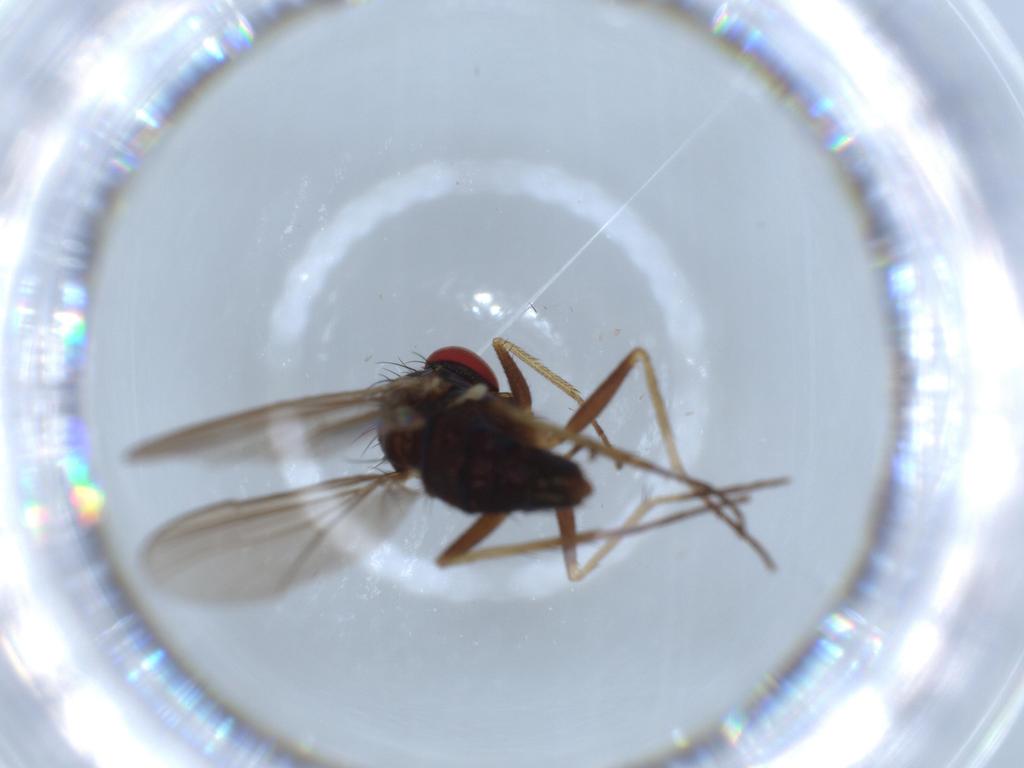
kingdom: Animalia
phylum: Arthropoda
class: Insecta
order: Diptera
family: Dolichopodidae
